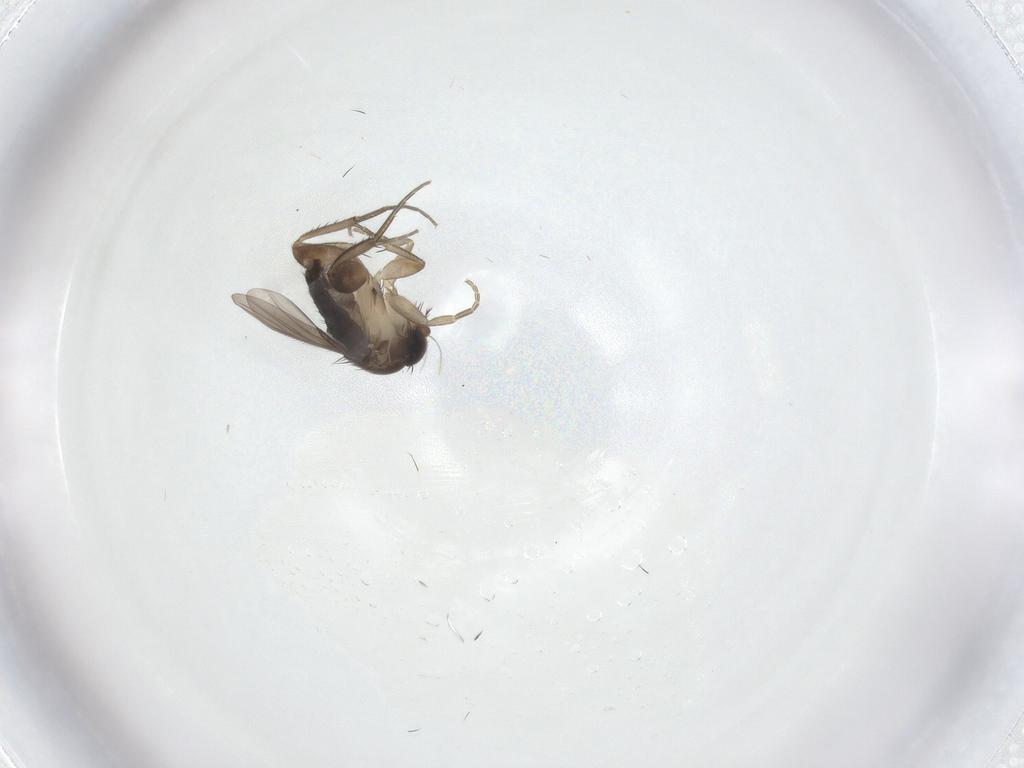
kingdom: Animalia
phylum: Arthropoda
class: Insecta
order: Diptera
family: Phoridae
